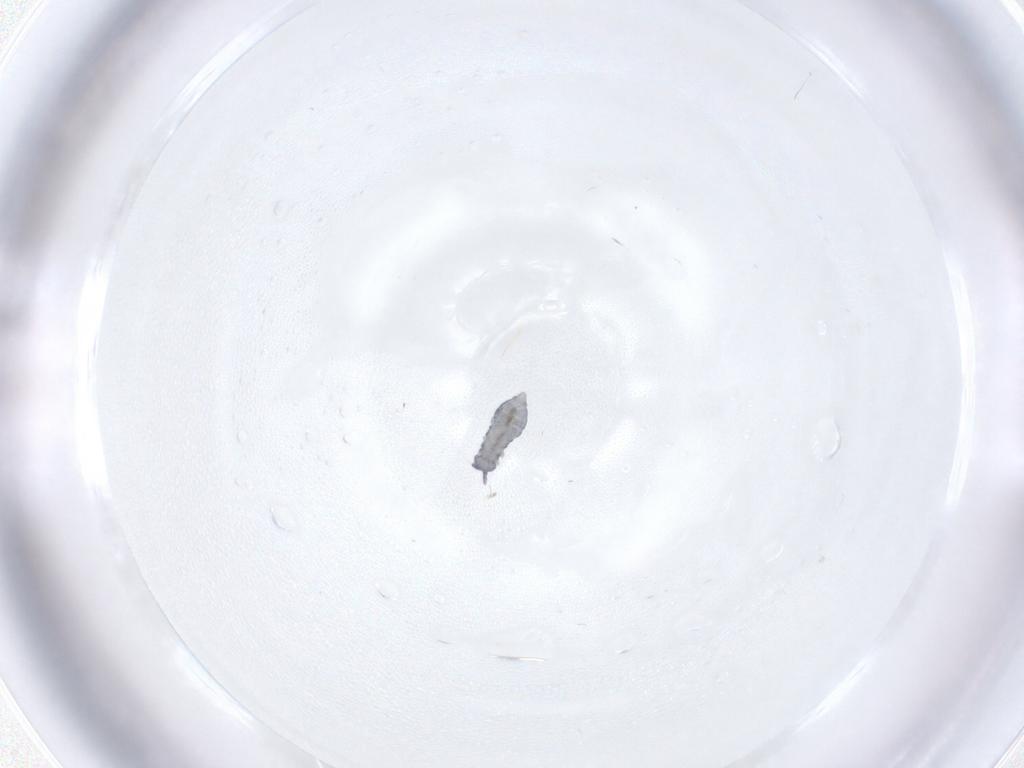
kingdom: Animalia
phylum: Arthropoda
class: Collembola
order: Poduromorpha
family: Hypogastruridae
